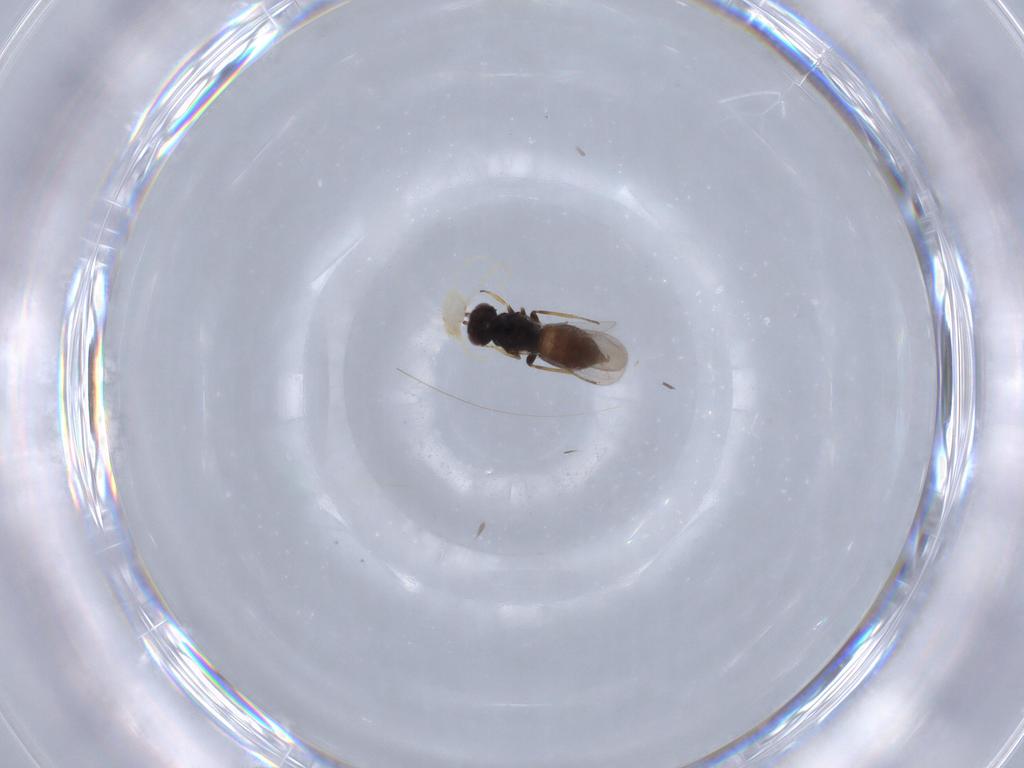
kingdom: Animalia
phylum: Arthropoda
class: Insecta
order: Hymenoptera
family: Eulophidae
